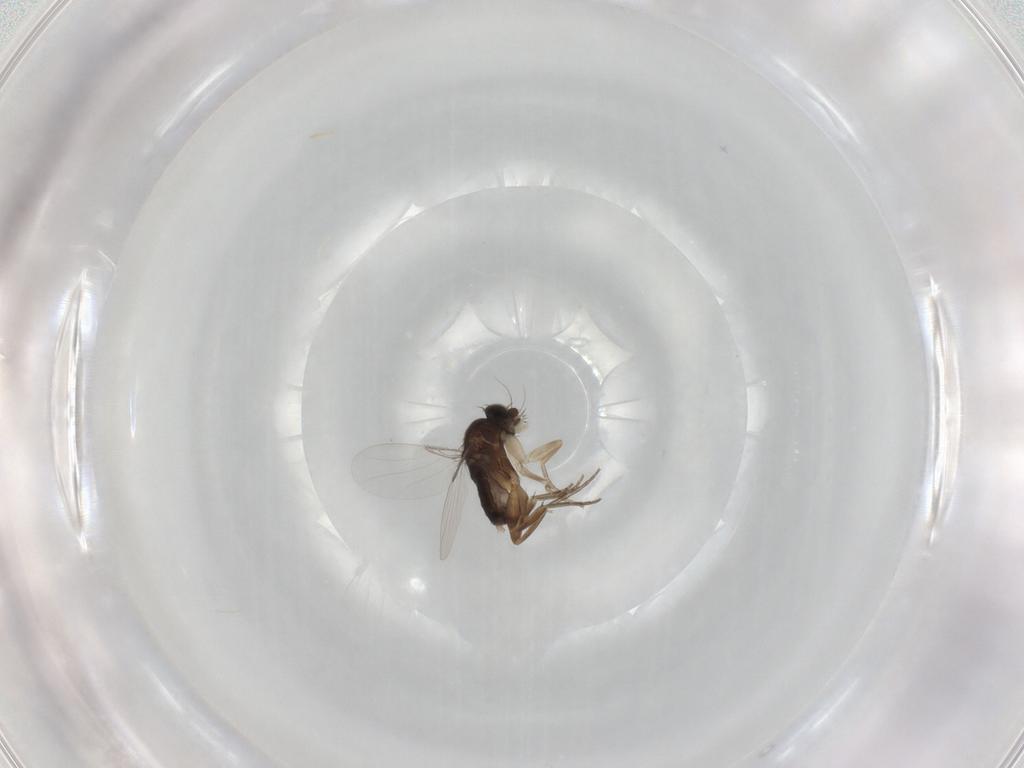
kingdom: Animalia
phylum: Arthropoda
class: Insecta
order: Diptera
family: Phoridae
